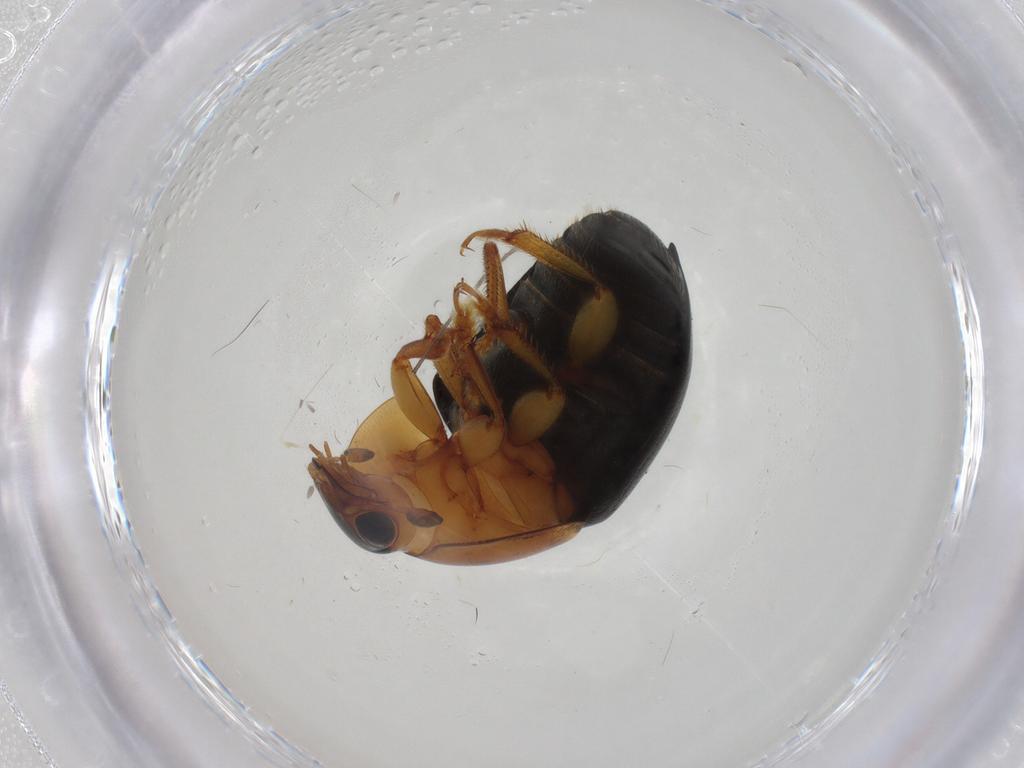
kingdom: Animalia
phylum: Arthropoda
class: Insecta
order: Coleoptera
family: Nitidulidae
